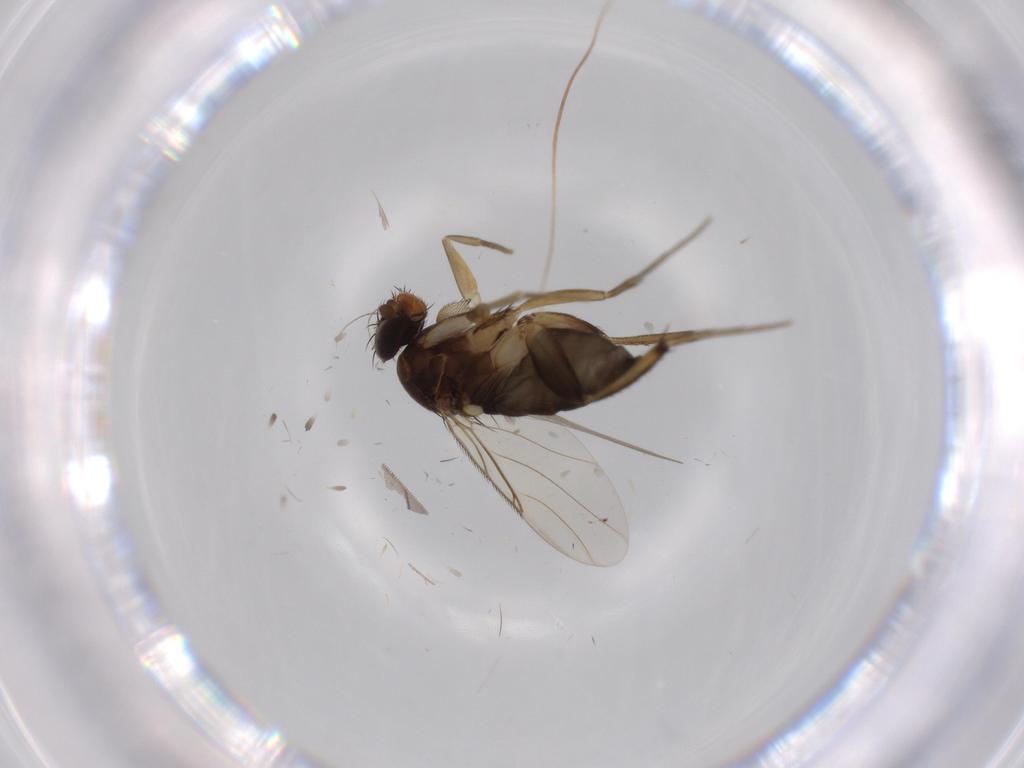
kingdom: Animalia
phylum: Arthropoda
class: Insecta
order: Diptera
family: Phoridae
